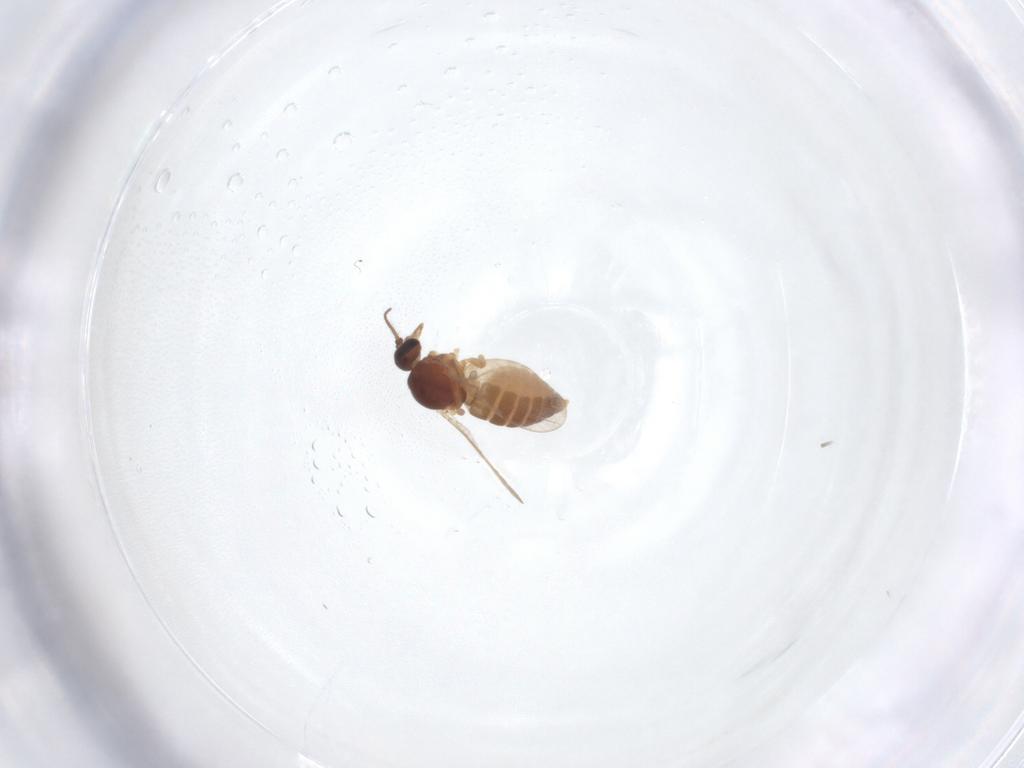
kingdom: Animalia
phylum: Arthropoda
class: Insecta
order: Diptera
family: Ceratopogonidae
